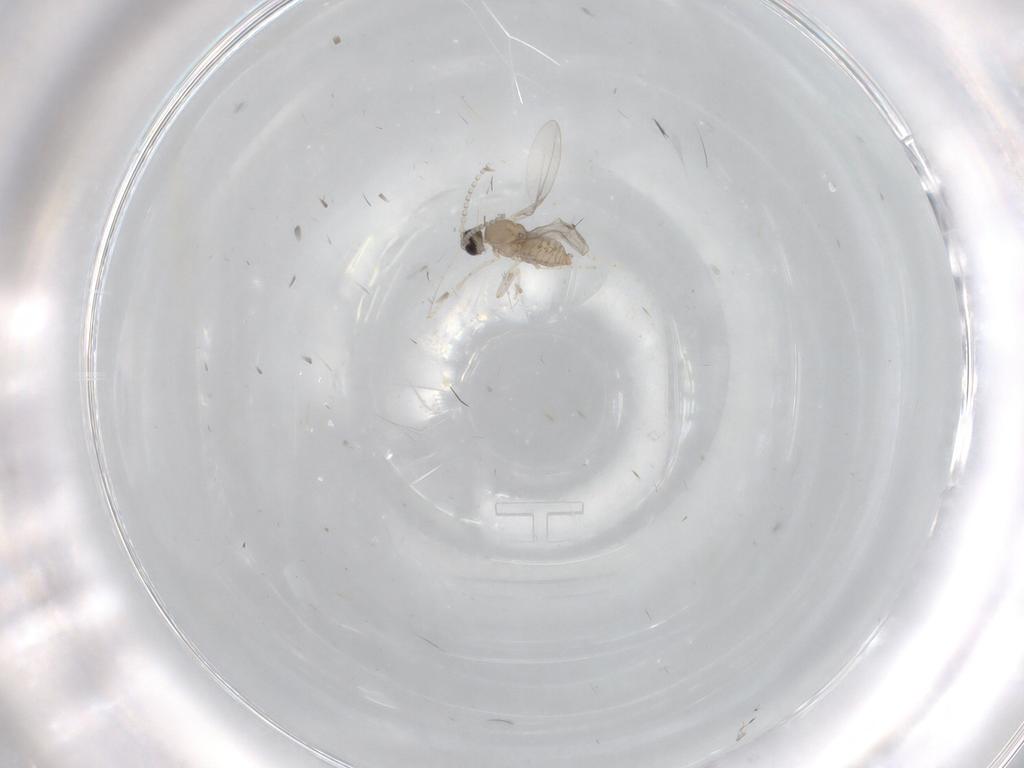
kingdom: Animalia
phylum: Arthropoda
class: Insecta
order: Diptera
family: Cecidomyiidae
